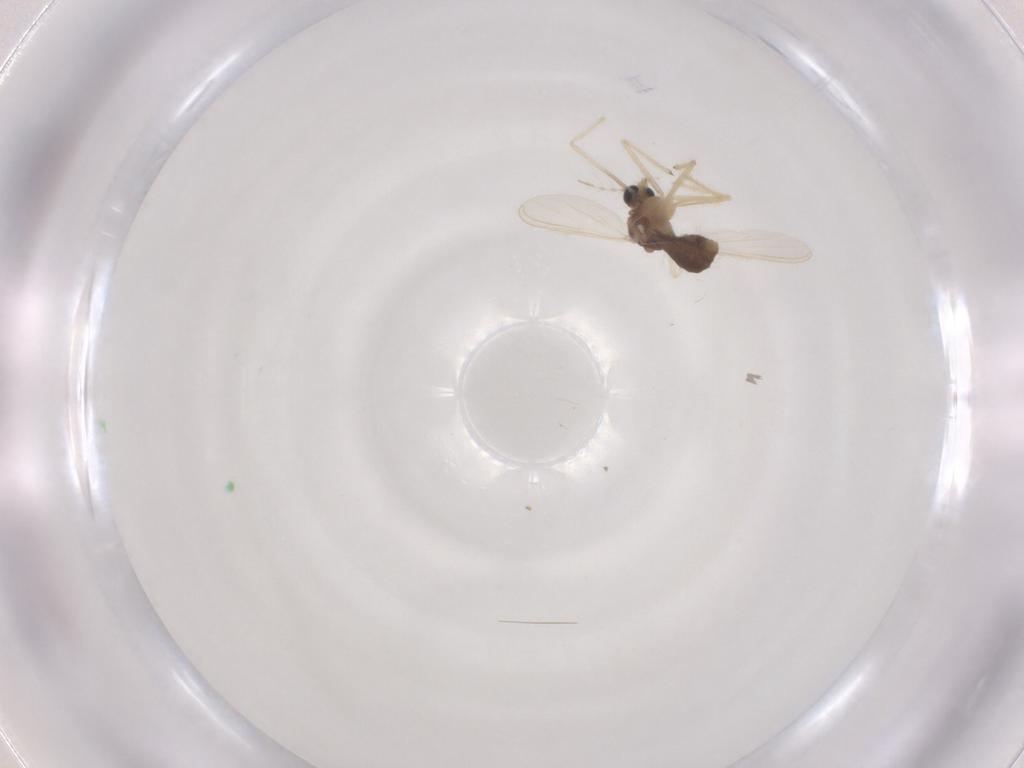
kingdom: Animalia
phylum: Arthropoda
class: Insecta
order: Diptera
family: Chironomidae
